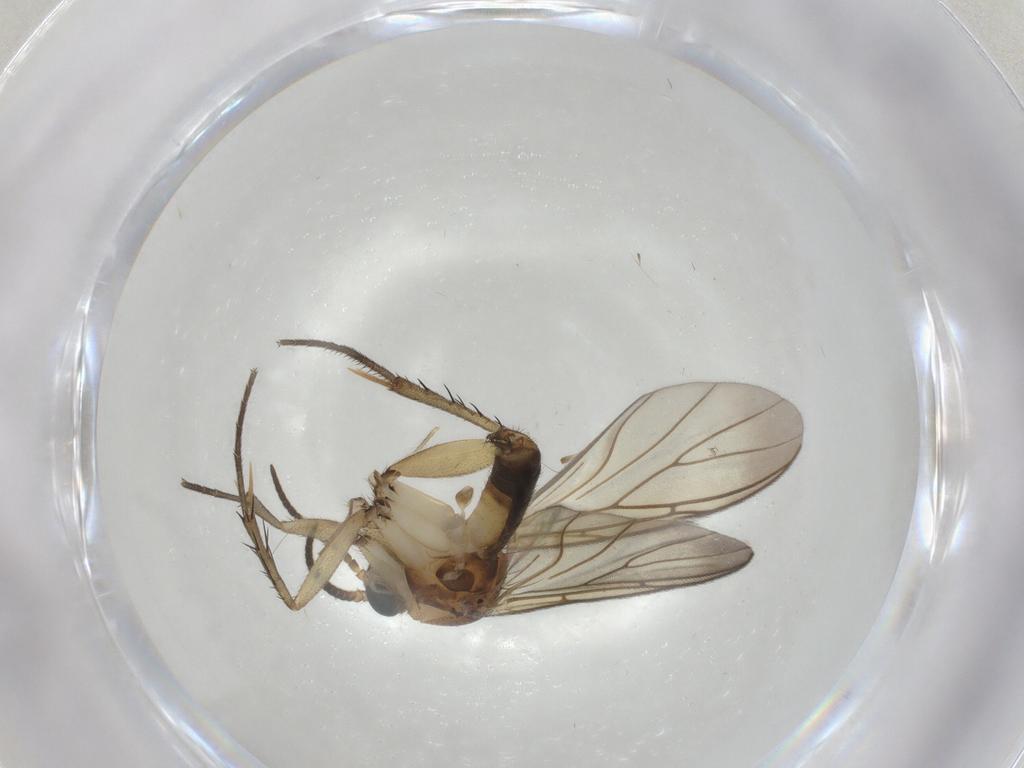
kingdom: Animalia
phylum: Arthropoda
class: Insecta
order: Diptera
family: Mycetophilidae
